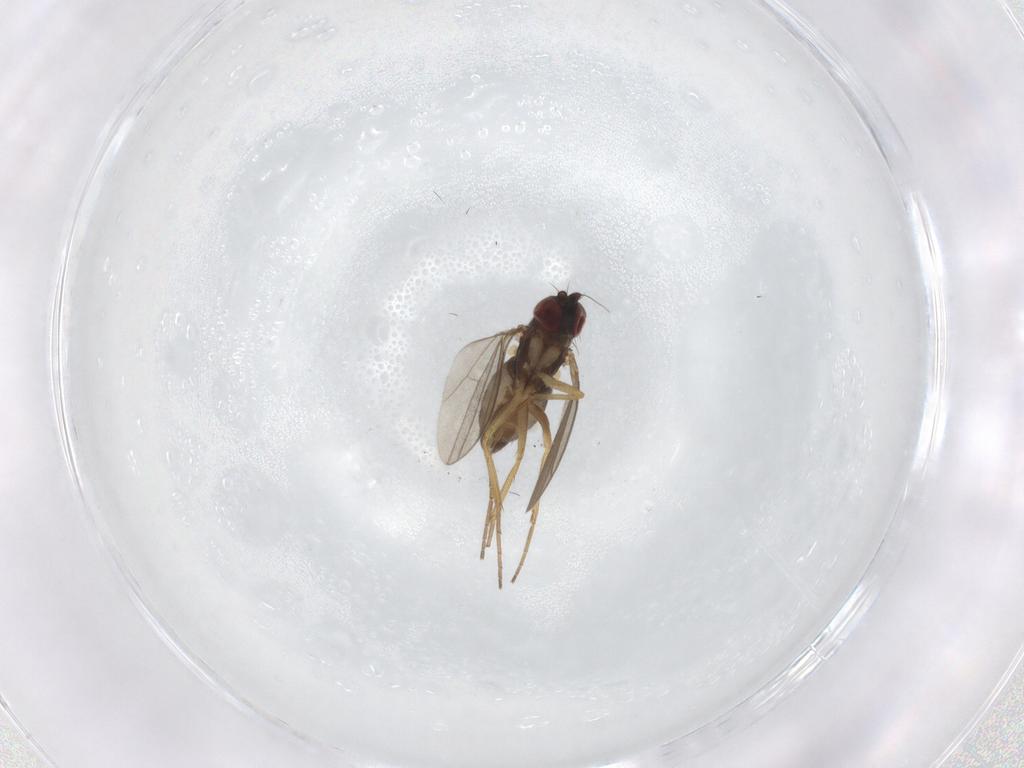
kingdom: Animalia
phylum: Arthropoda
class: Insecta
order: Diptera
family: Dolichopodidae
